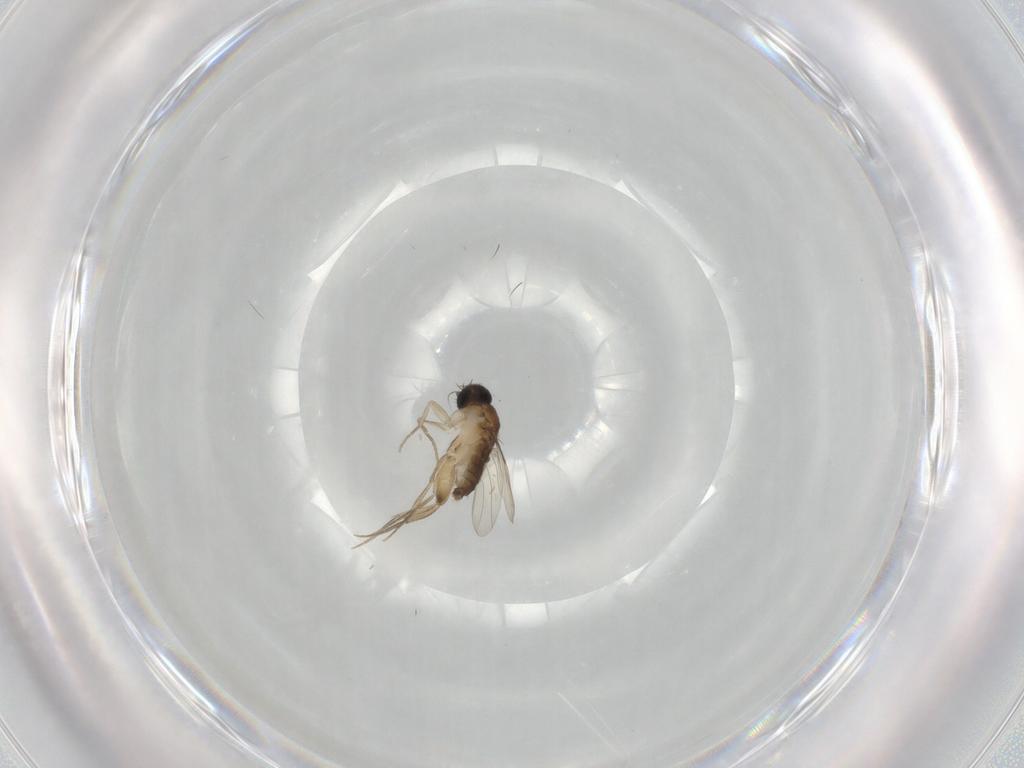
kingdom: Animalia
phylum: Arthropoda
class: Insecta
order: Diptera
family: Phoridae
